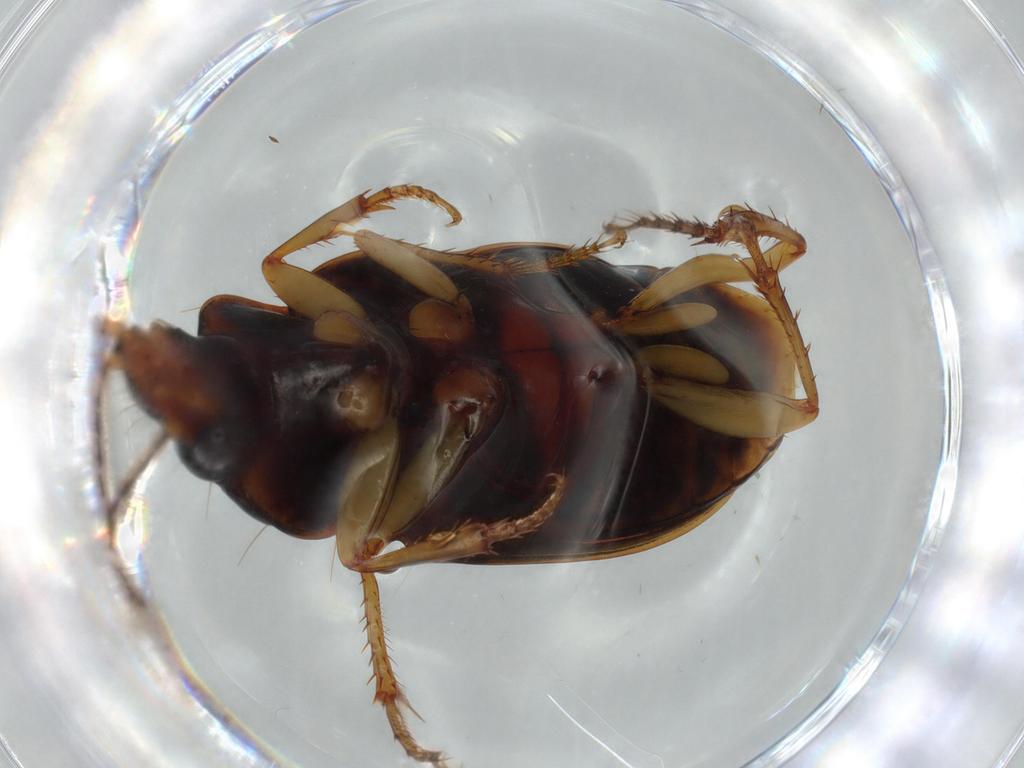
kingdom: Animalia
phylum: Arthropoda
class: Insecta
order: Coleoptera
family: Carabidae
